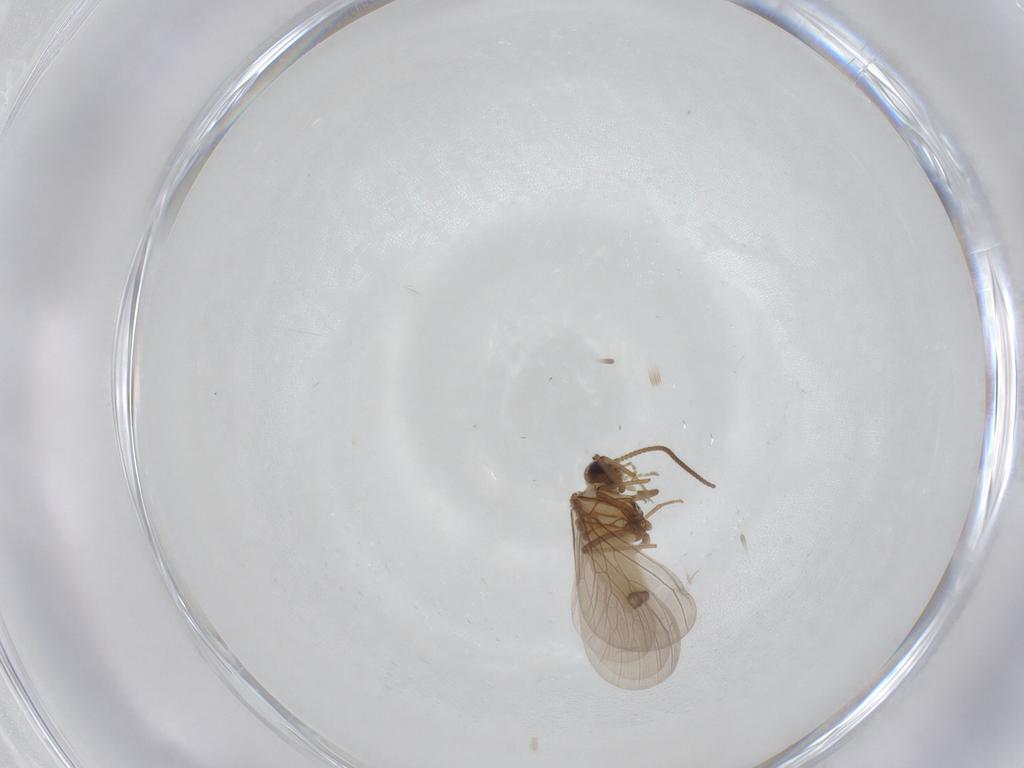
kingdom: Animalia
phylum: Arthropoda
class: Insecta
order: Neuroptera
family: Coniopterygidae
